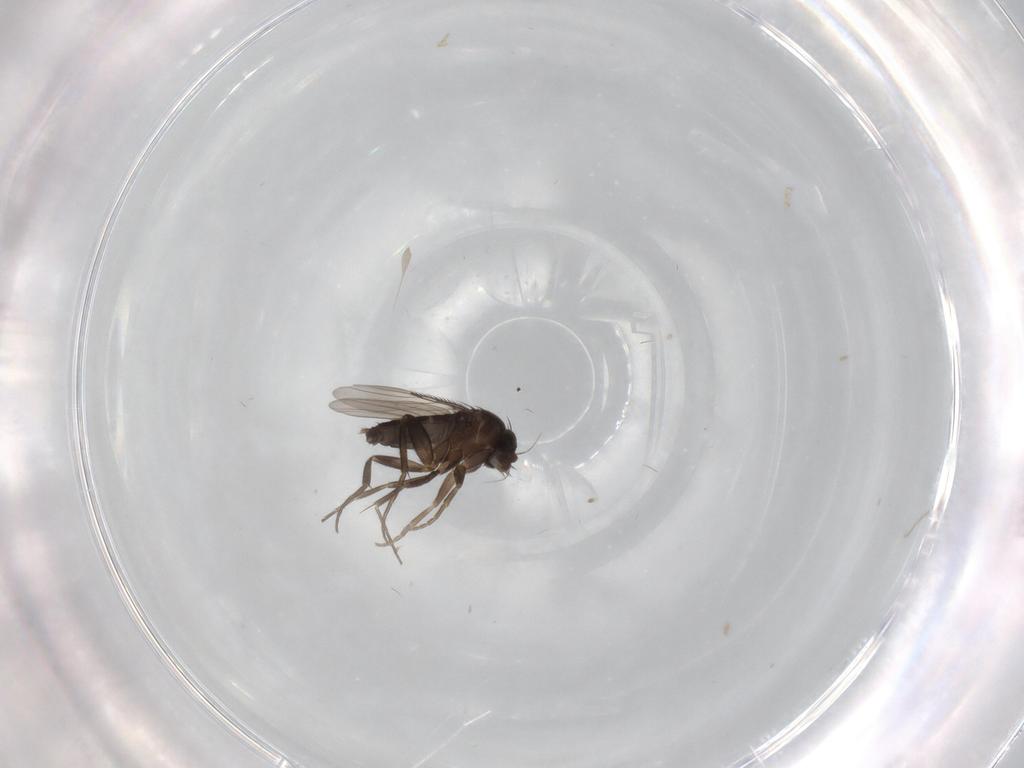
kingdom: Animalia
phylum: Arthropoda
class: Insecta
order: Diptera
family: Phoridae
